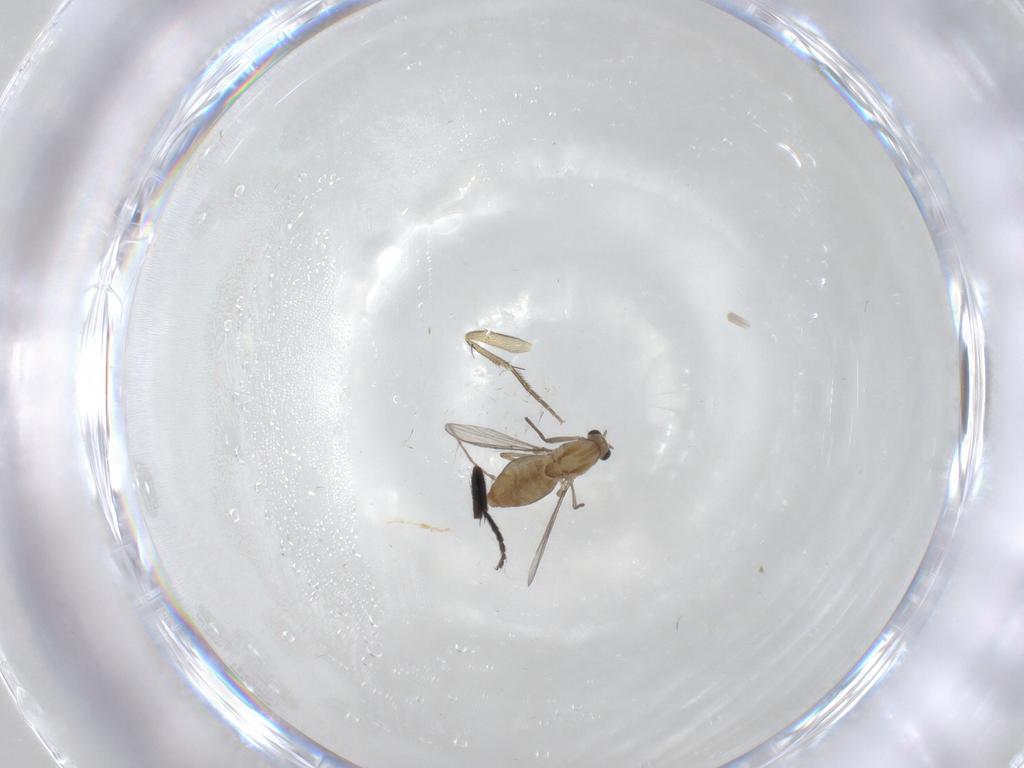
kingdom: Animalia
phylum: Arthropoda
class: Insecta
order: Diptera
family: Chironomidae
